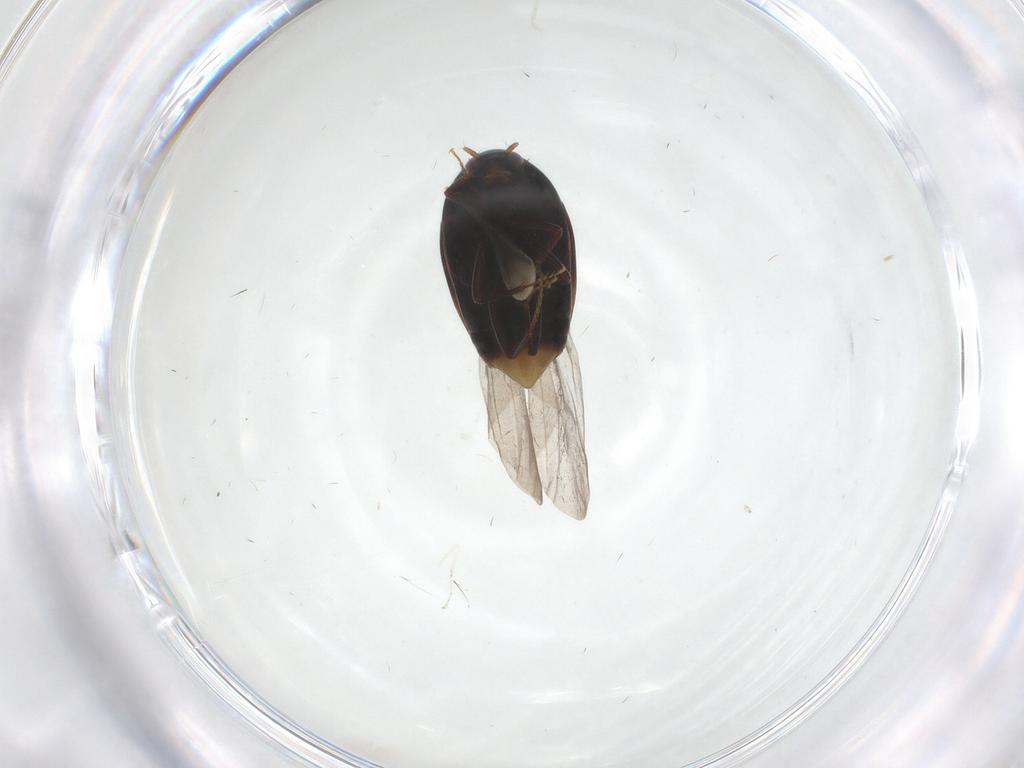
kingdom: Animalia
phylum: Arthropoda
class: Insecta
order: Coleoptera
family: Staphylinidae
